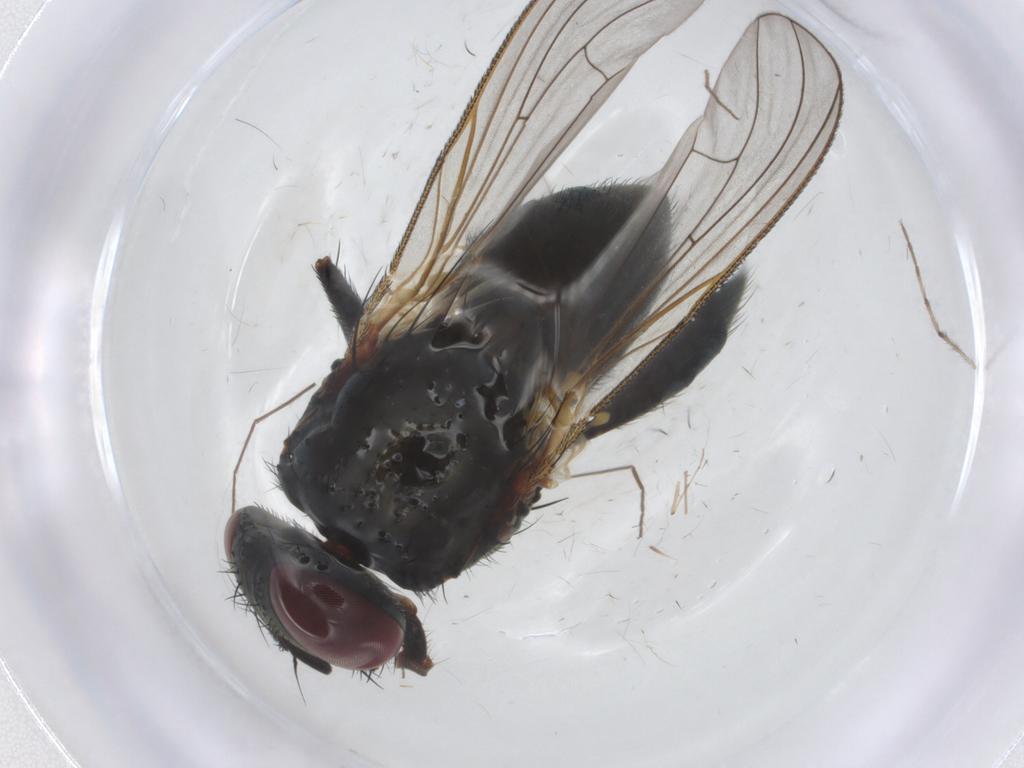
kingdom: Animalia
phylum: Arthropoda
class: Insecta
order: Diptera
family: Fannia
